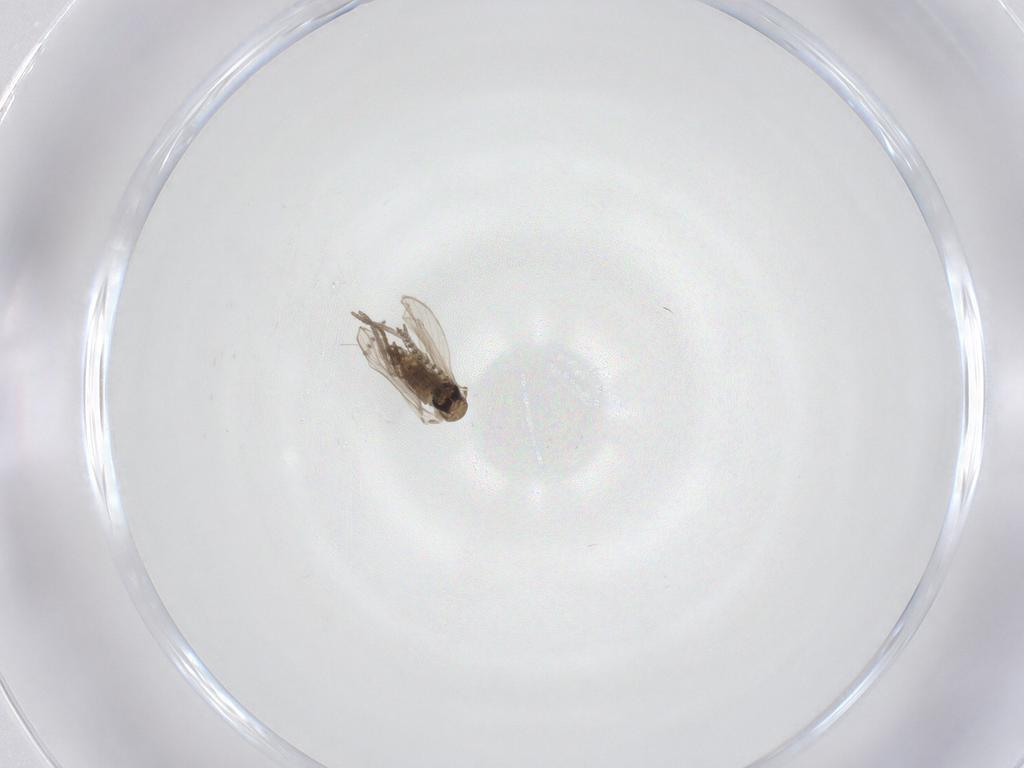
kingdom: Animalia
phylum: Arthropoda
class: Insecta
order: Diptera
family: Psychodidae
